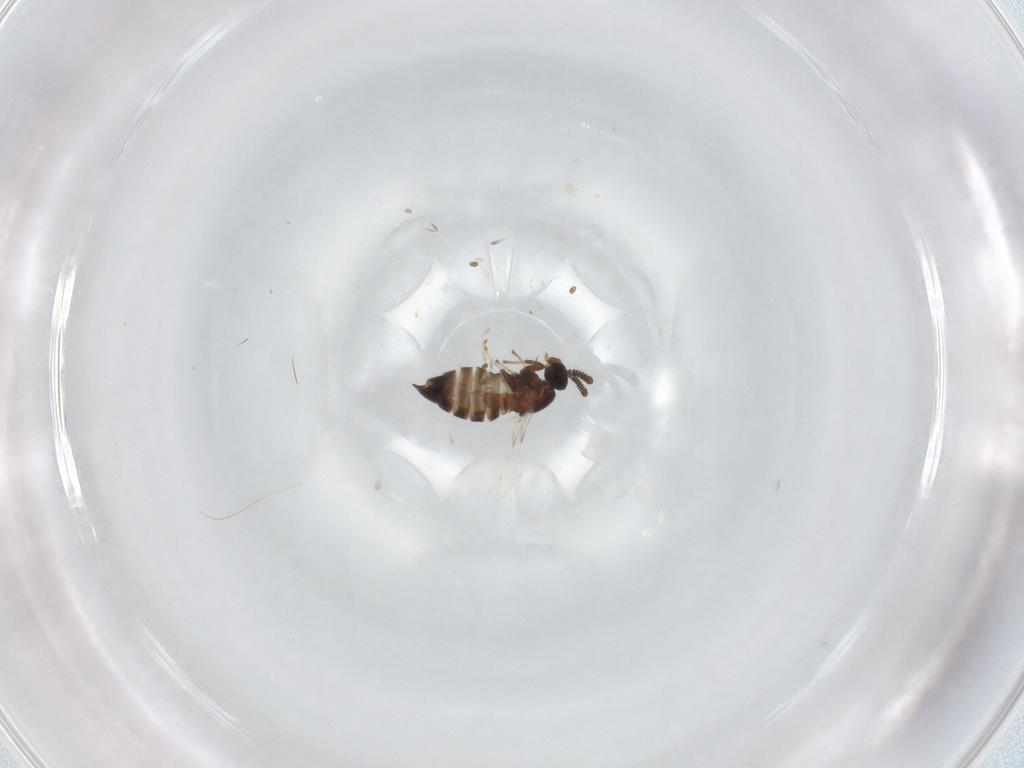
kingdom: Animalia
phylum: Arthropoda
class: Insecta
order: Diptera
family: Scatopsidae
